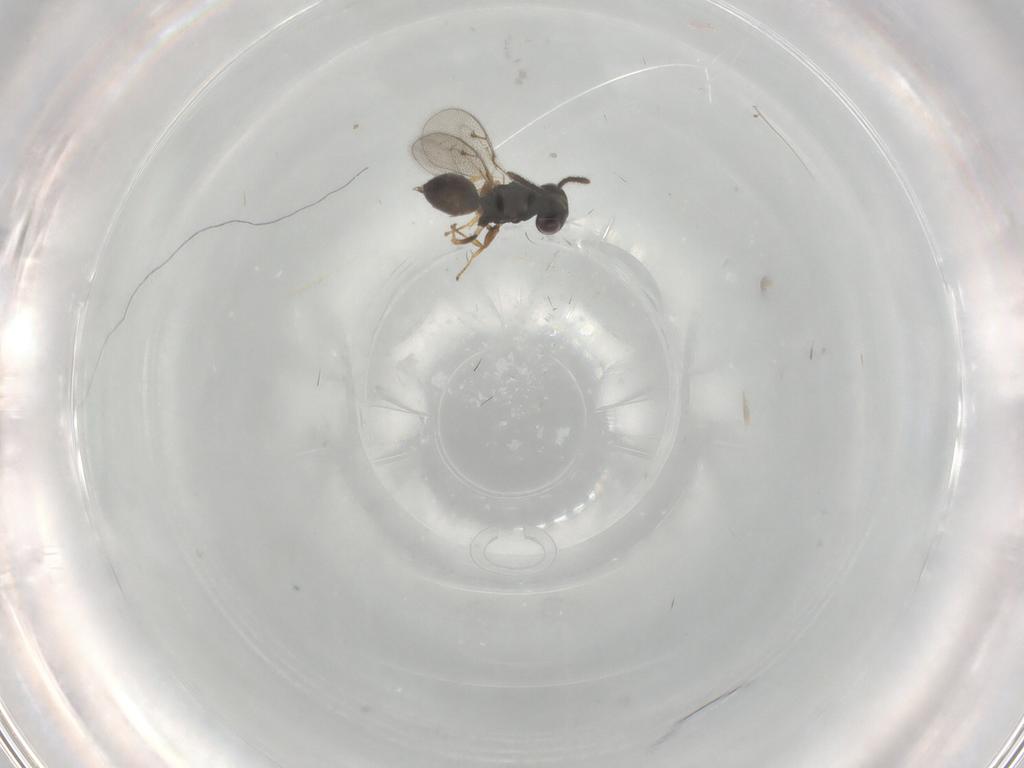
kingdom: Animalia
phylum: Arthropoda
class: Insecta
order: Hymenoptera
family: Pirenidae
